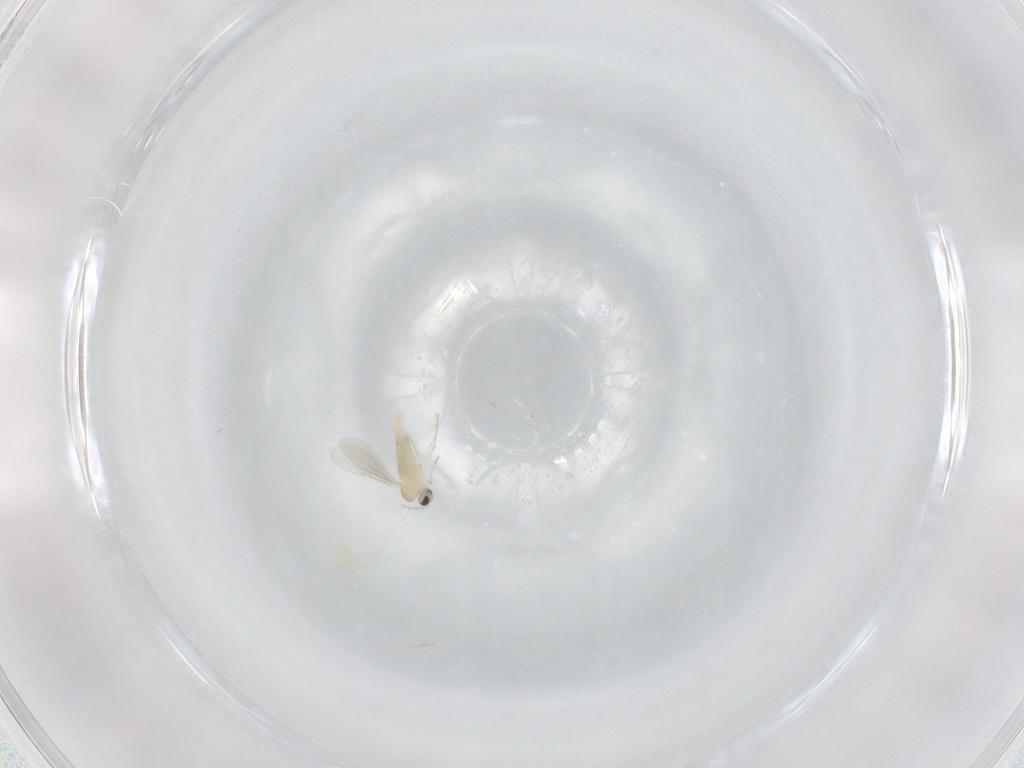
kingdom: Animalia
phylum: Arthropoda
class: Insecta
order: Diptera
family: Cecidomyiidae
